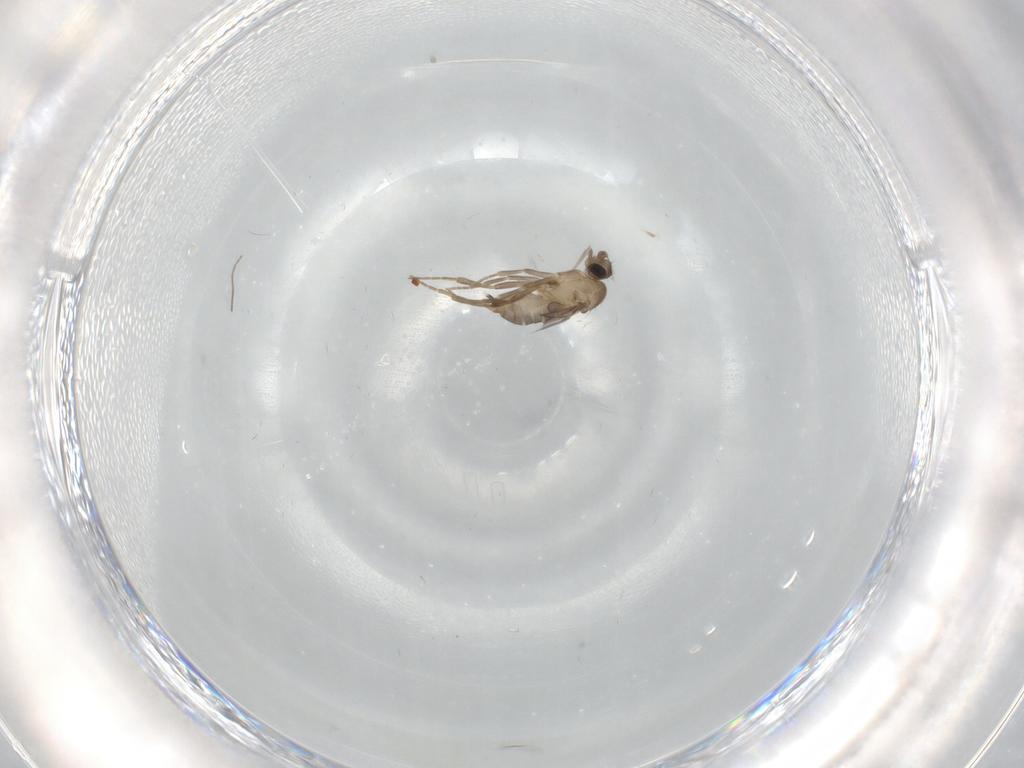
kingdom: Animalia
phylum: Arthropoda
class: Insecta
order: Diptera
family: Chironomidae
